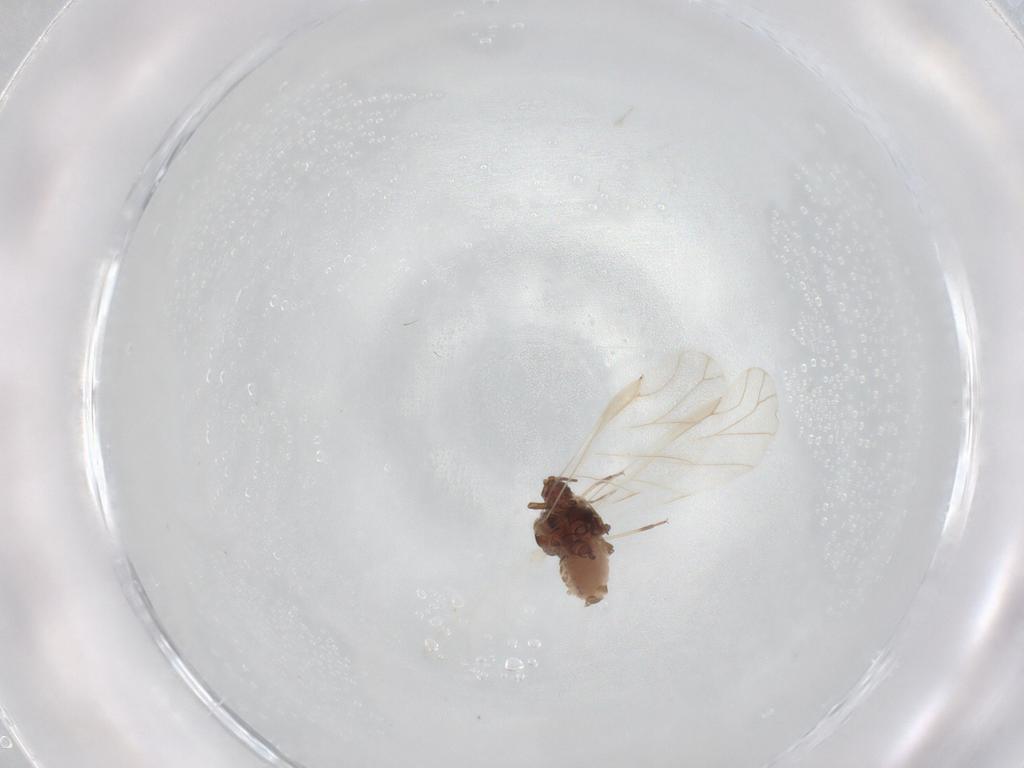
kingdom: Animalia
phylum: Arthropoda
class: Insecta
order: Hemiptera
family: Aphididae
